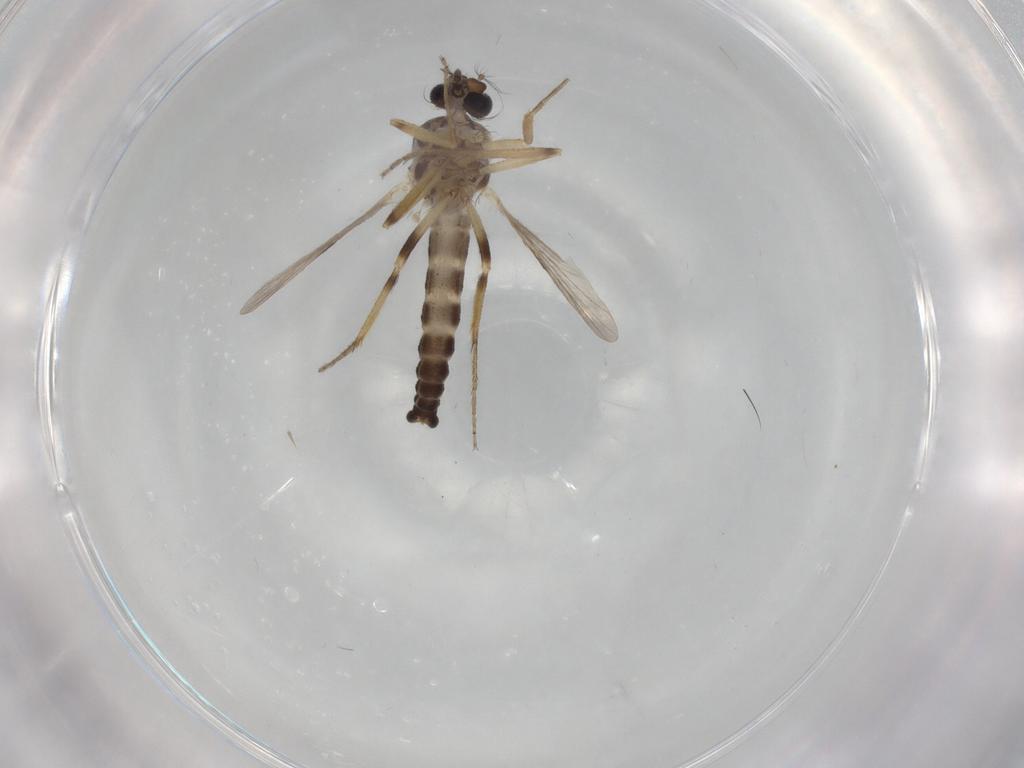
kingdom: Animalia
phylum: Arthropoda
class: Insecta
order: Diptera
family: Ceratopogonidae
